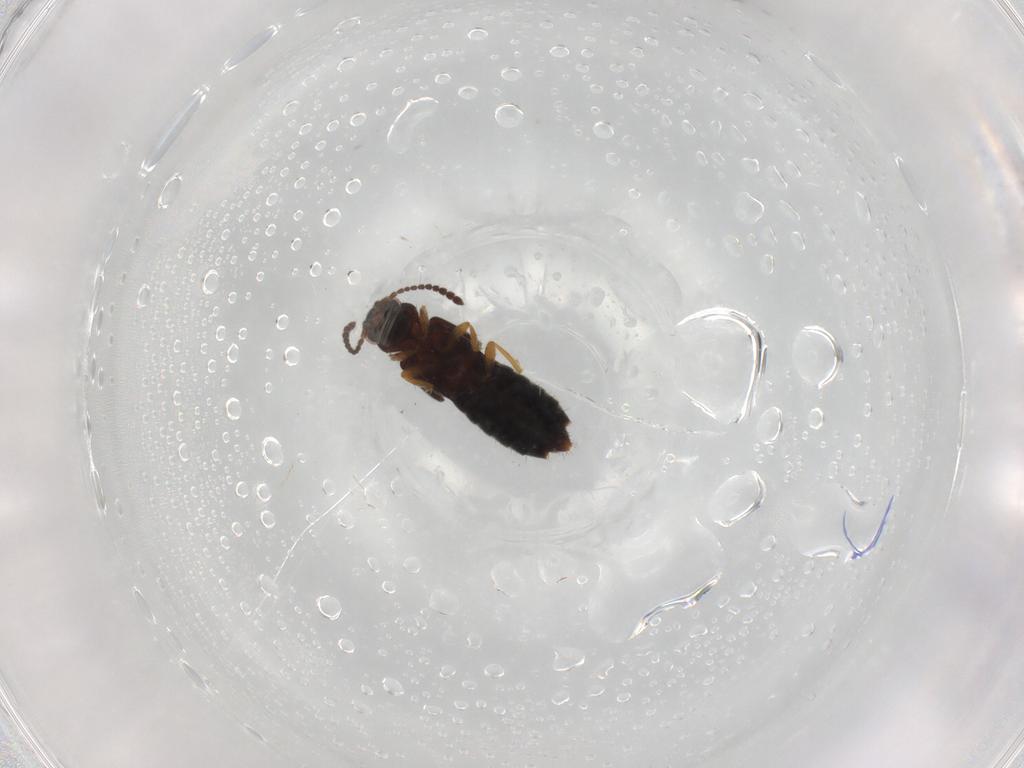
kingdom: Animalia
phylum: Arthropoda
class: Insecta
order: Coleoptera
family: Staphylinidae
